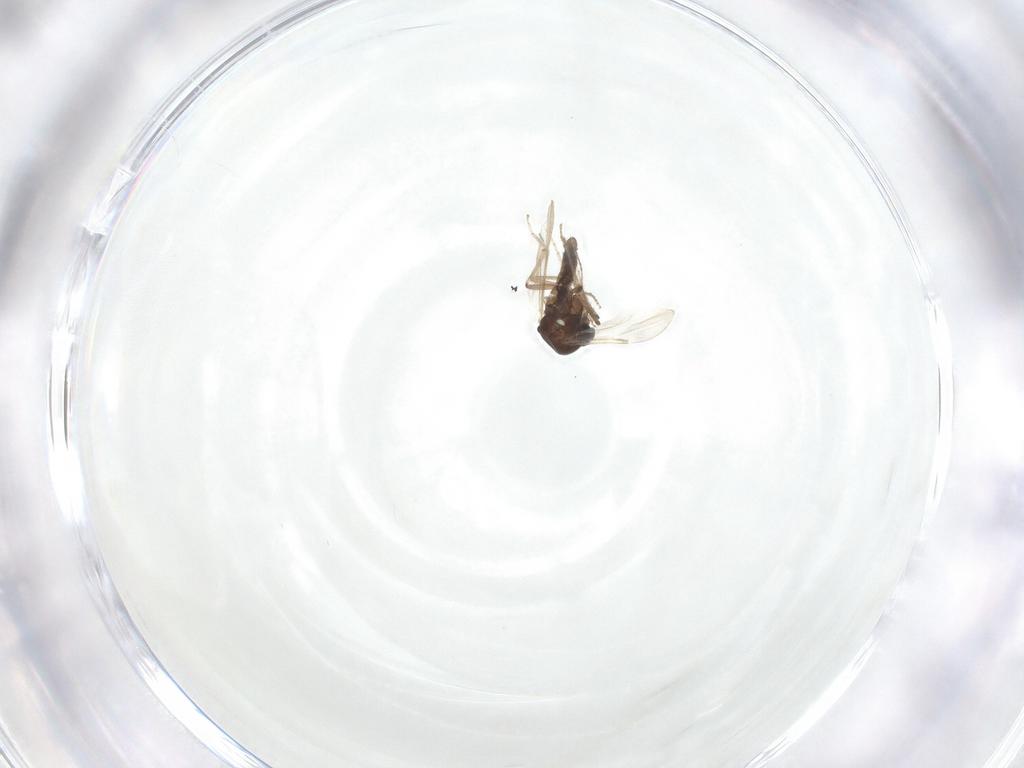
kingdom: Animalia
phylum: Arthropoda
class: Insecta
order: Diptera
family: Ceratopogonidae
